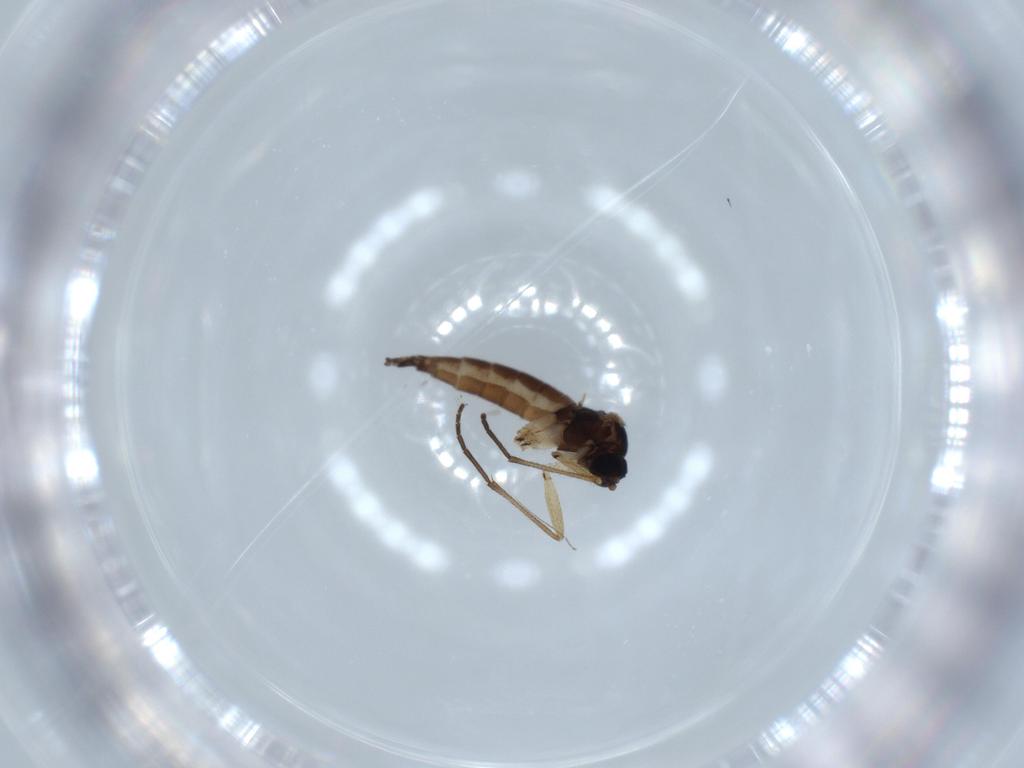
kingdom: Animalia
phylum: Arthropoda
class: Insecta
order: Diptera
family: Sciaridae
